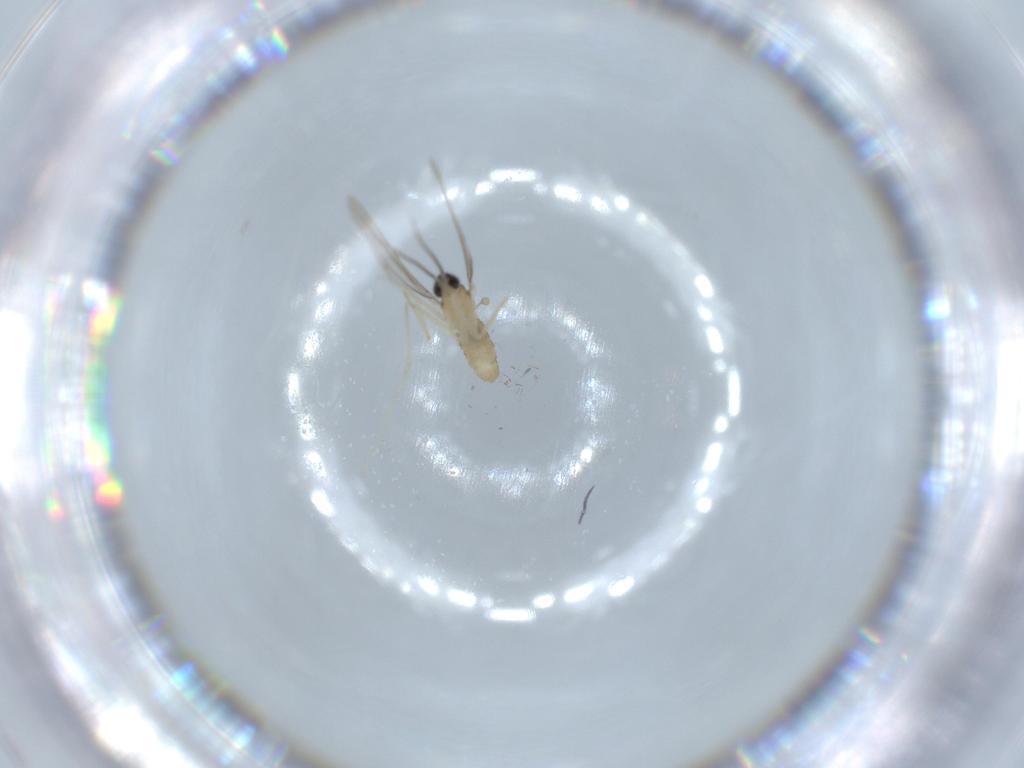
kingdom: Animalia
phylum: Arthropoda
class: Insecta
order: Diptera
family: Cecidomyiidae
